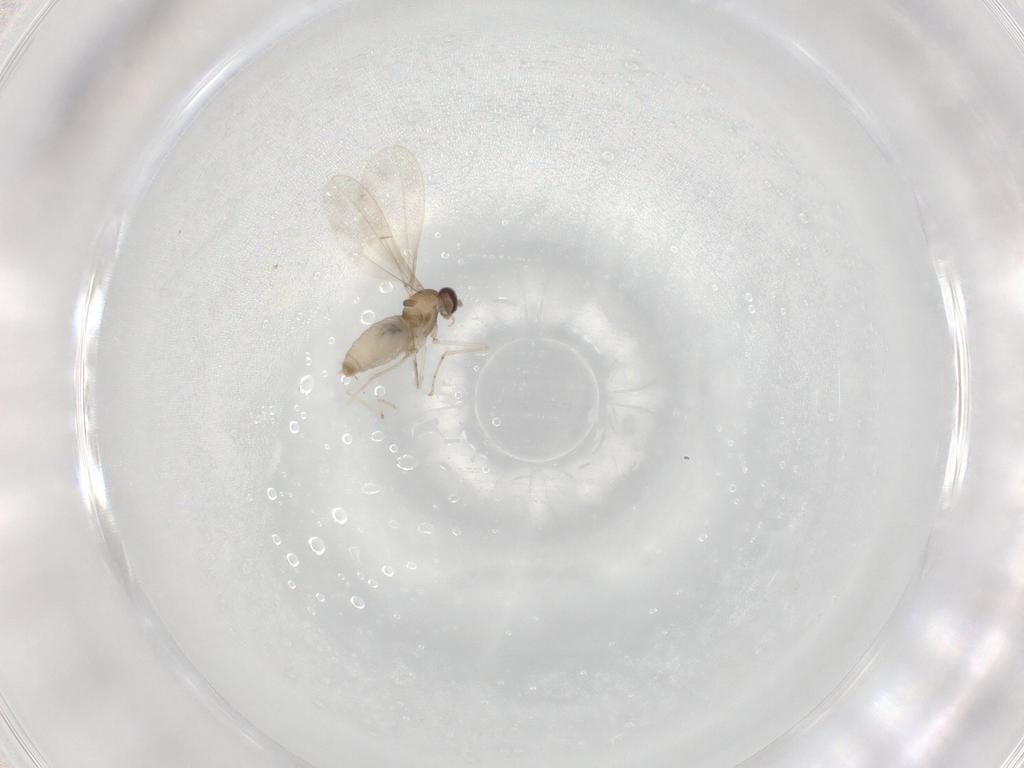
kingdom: Animalia
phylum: Arthropoda
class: Insecta
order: Diptera
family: Cecidomyiidae
